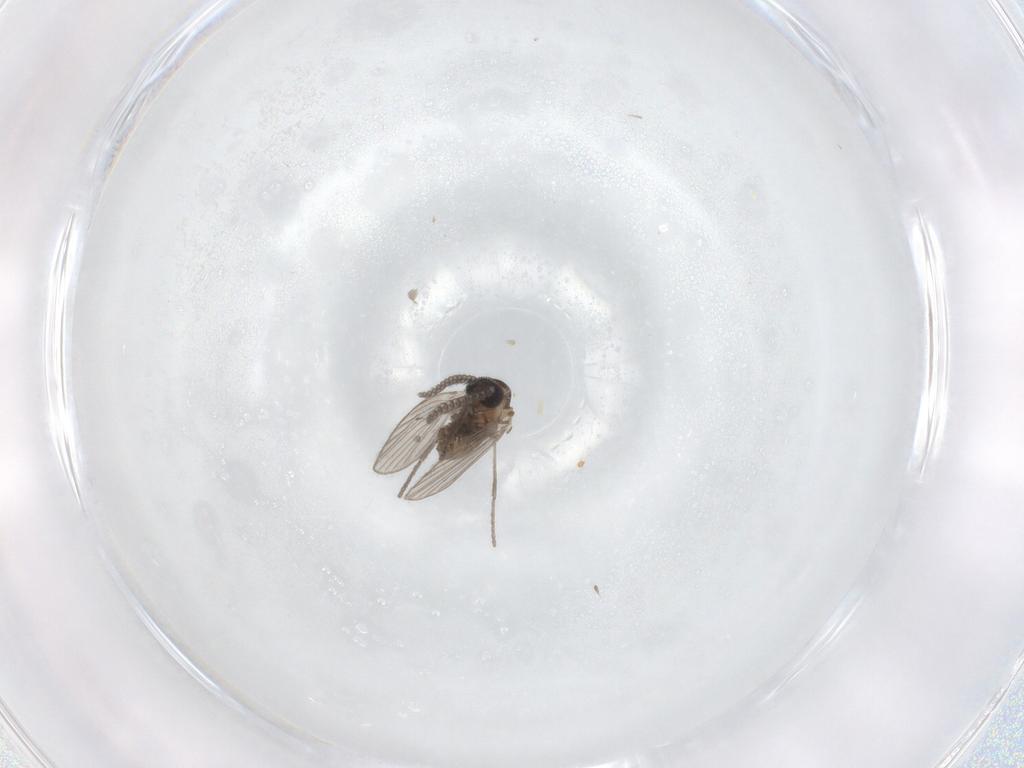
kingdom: Animalia
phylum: Arthropoda
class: Insecta
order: Diptera
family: Psychodidae
